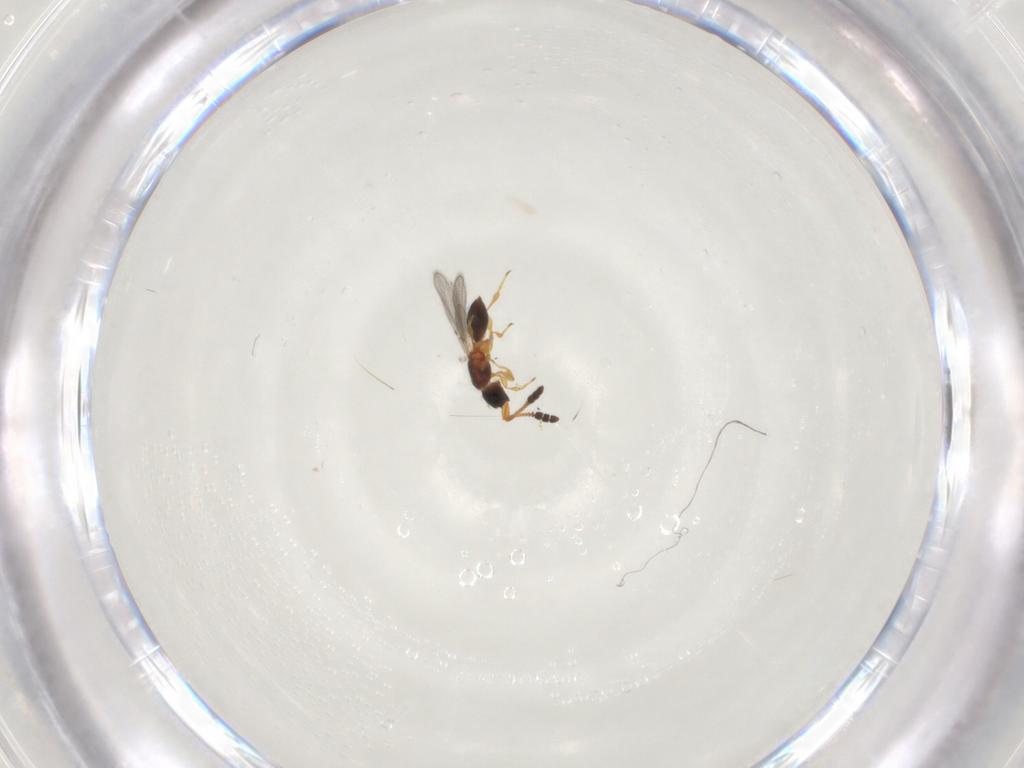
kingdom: Animalia
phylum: Arthropoda
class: Insecta
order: Hymenoptera
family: Diapriidae
